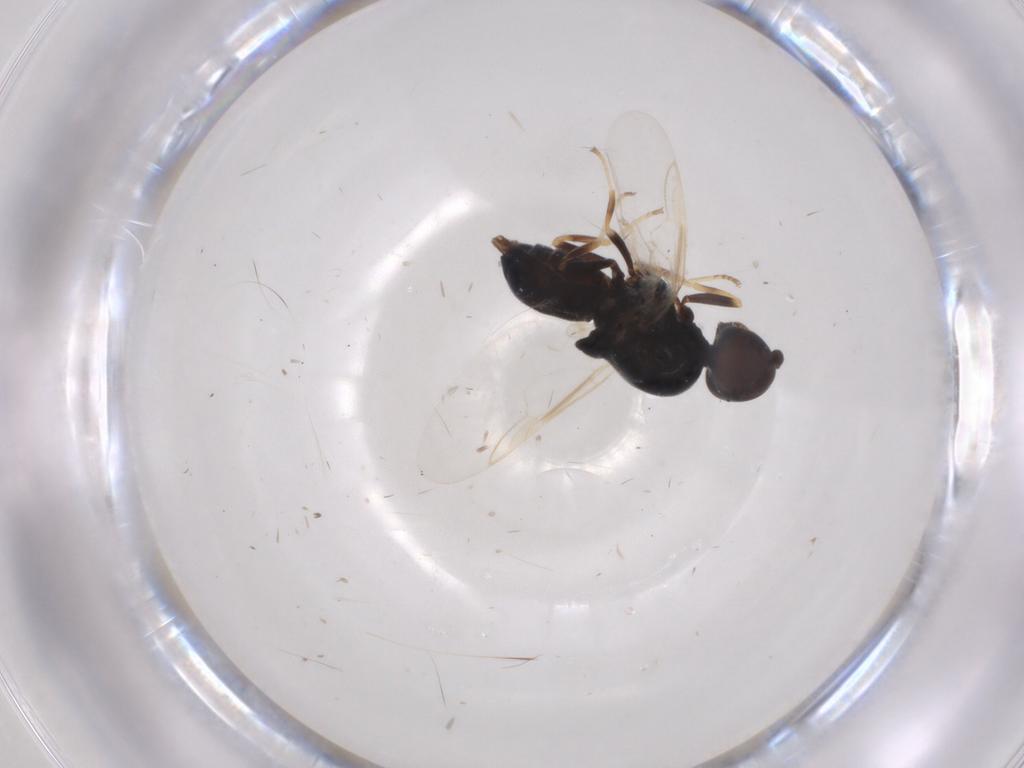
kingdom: Animalia
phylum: Arthropoda
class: Insecta
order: Diptera
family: Stratiomyidae
